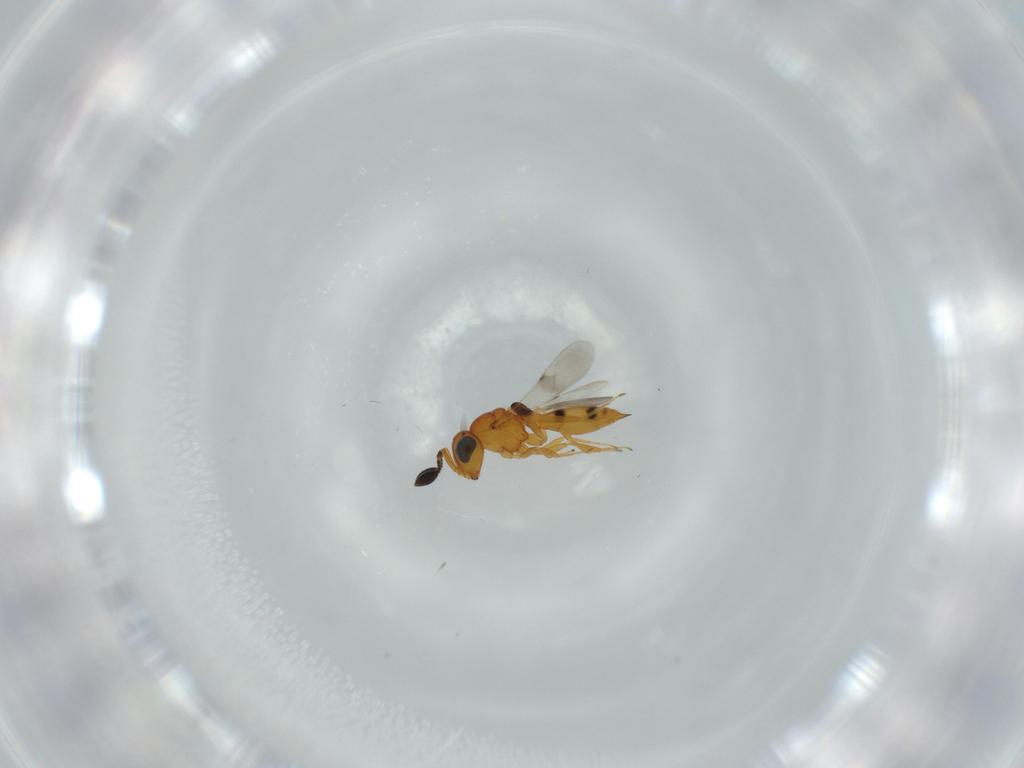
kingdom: Animalia
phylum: Arthropoda
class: Insecta
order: Hymenoptera
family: Scelionidae
